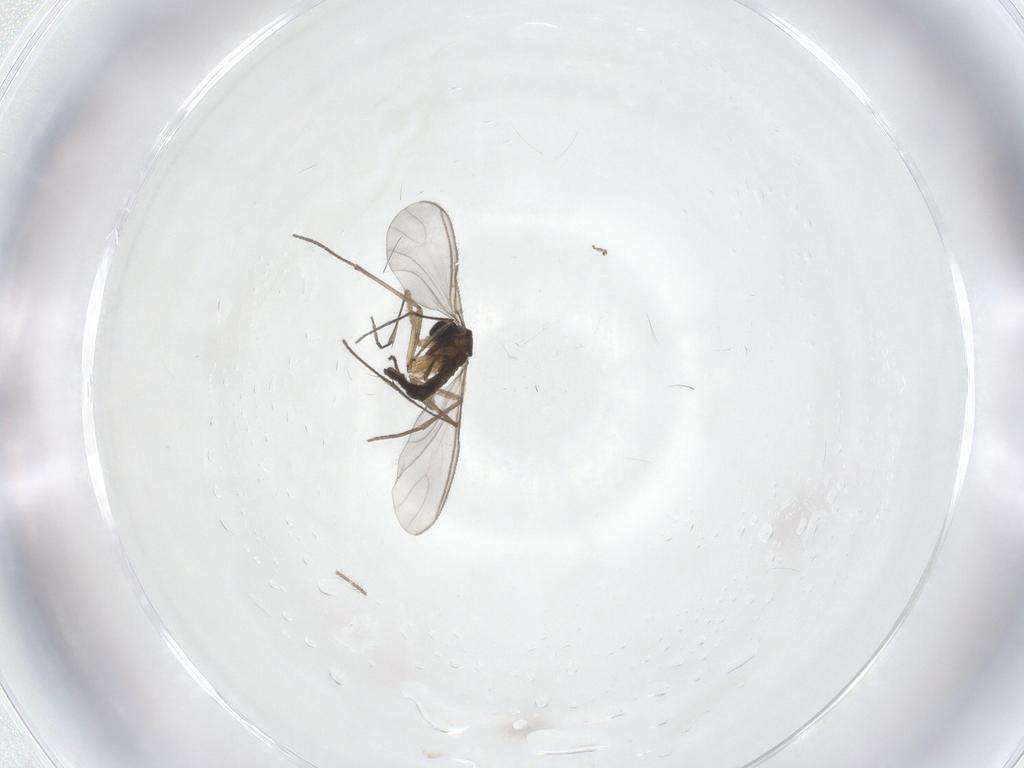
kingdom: Animalia
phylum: Arthropoda
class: Insecta
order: Diptera
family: Sciaridae
